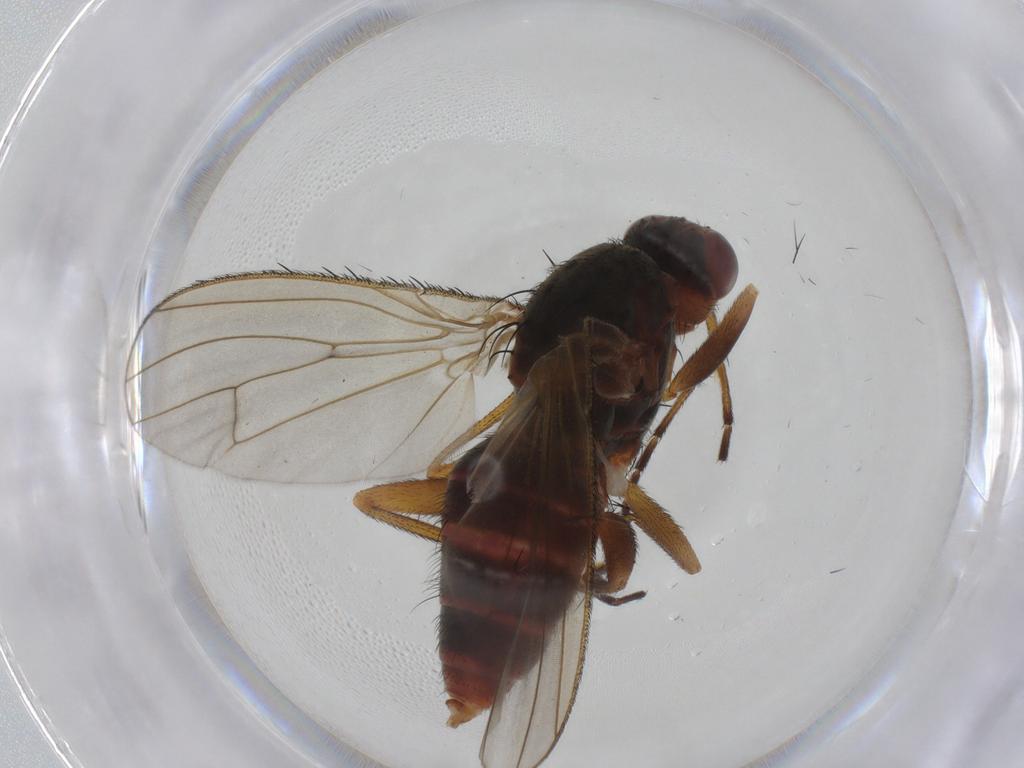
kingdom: Animalia
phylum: Arthropoda
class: Insecta
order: Diptera
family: Heleomyzidae
